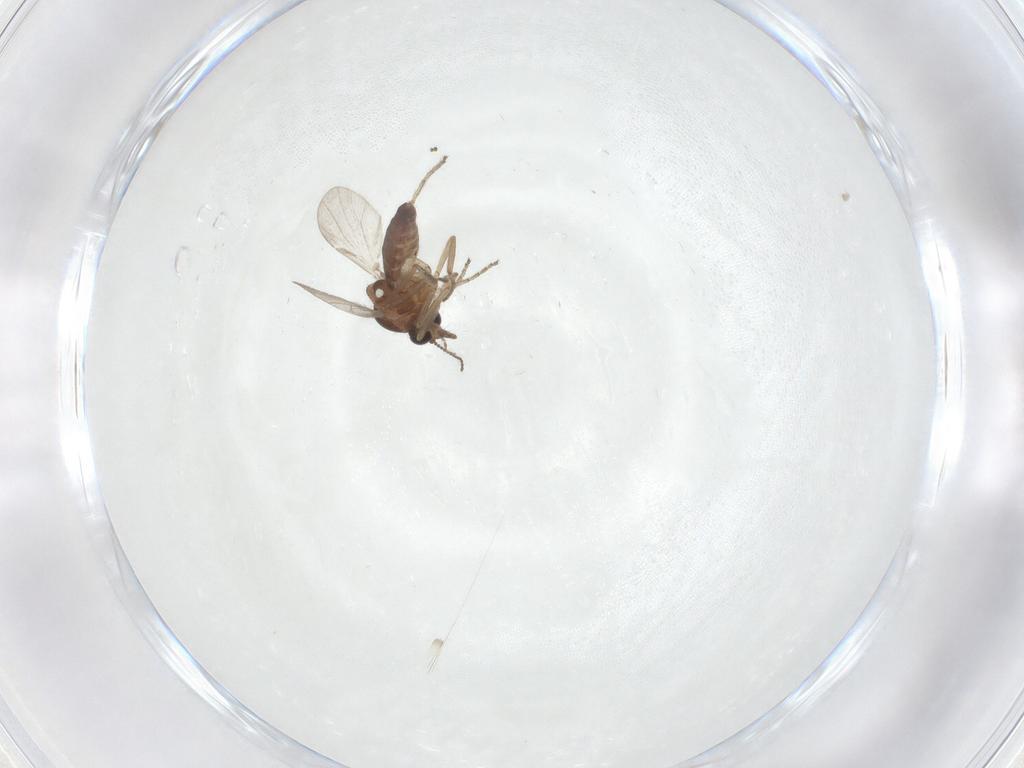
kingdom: Animalia
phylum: Arthropoda
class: Insecta
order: Diptera
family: Ceratopogonidae
